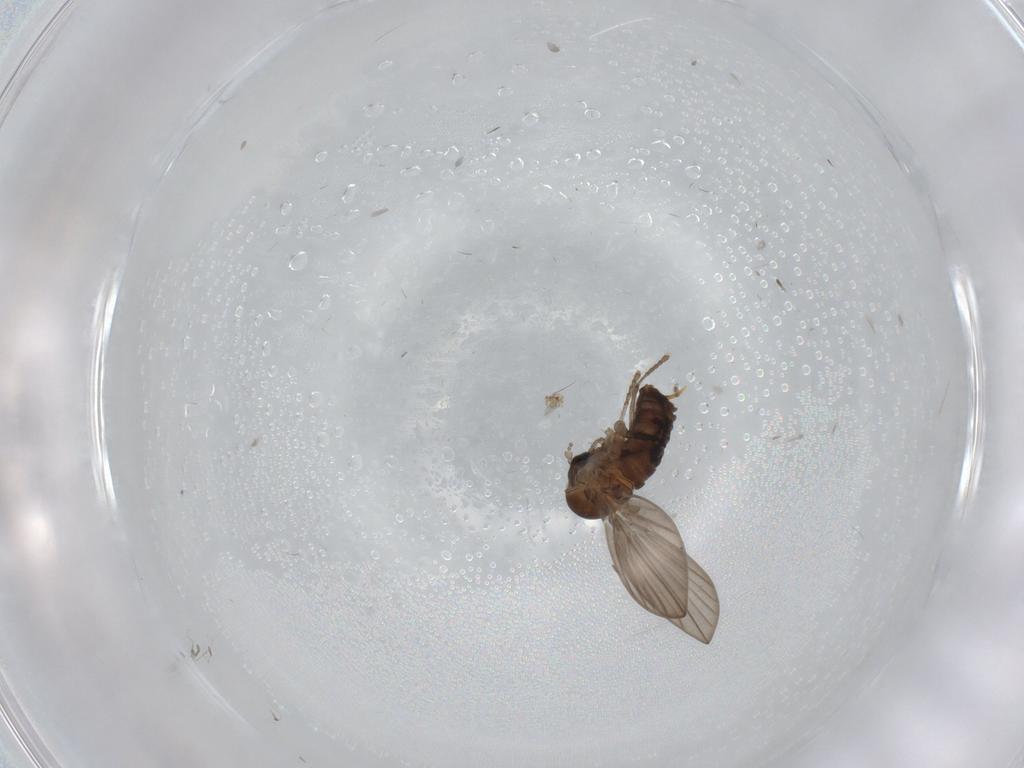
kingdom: Animalia
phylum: Arthropoda
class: Insecta
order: Diptera
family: Psychodidae
